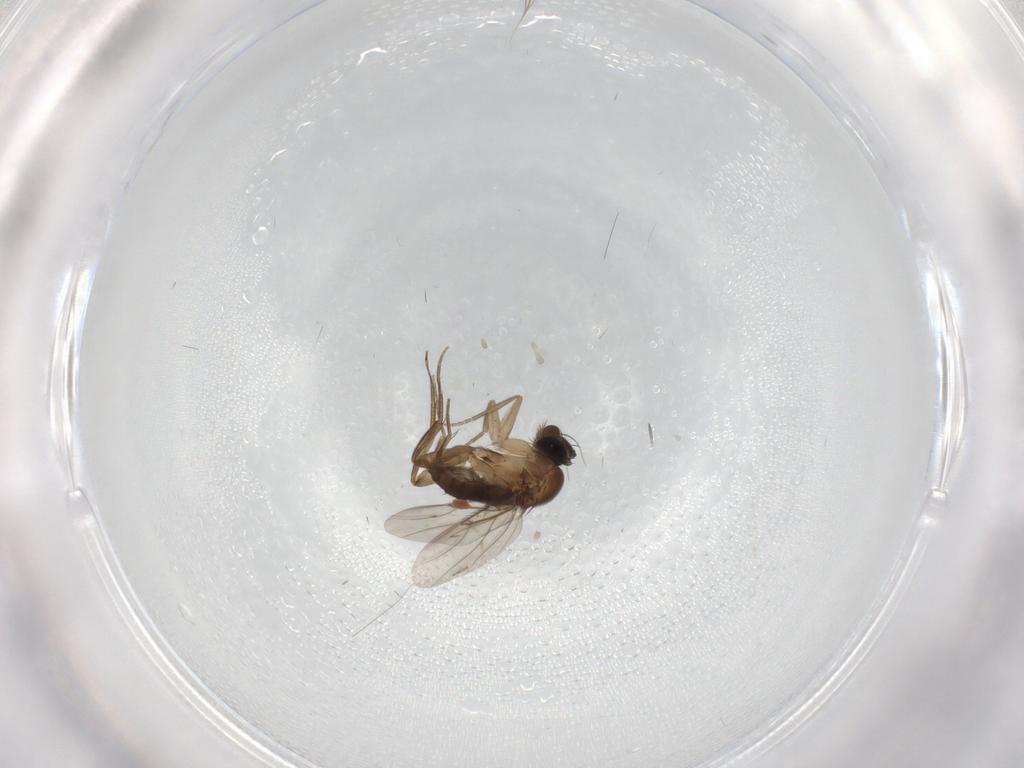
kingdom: Animalia
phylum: Arthropoda
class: Insecta
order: Diptera
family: Phoridae
